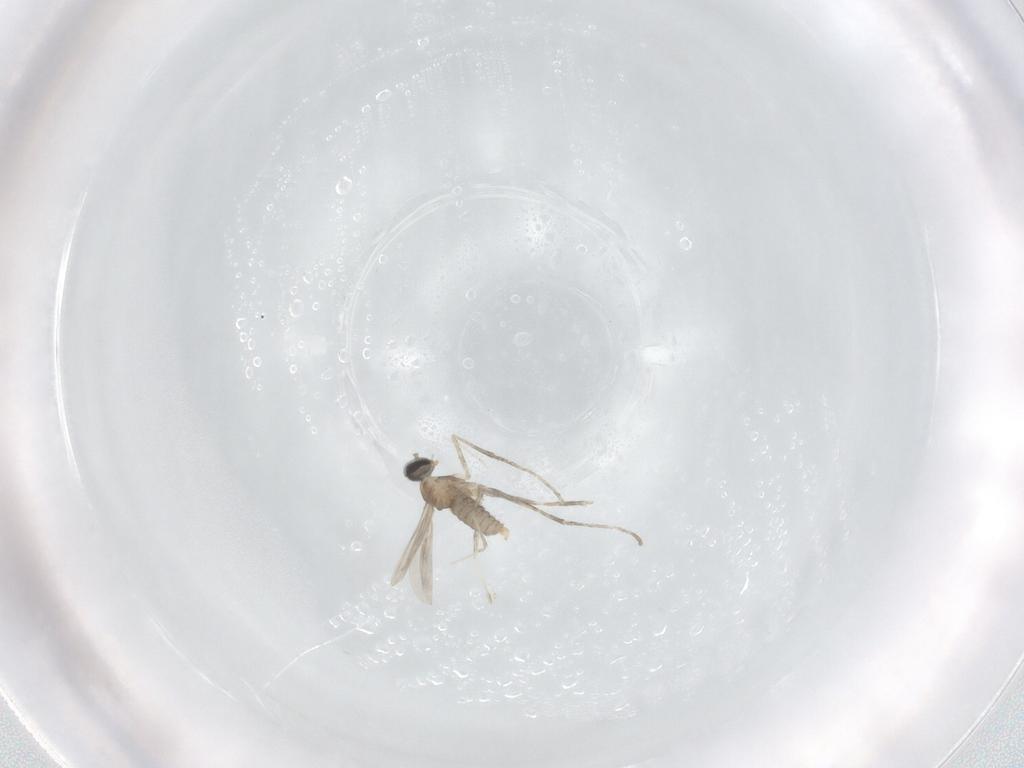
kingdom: Animalia
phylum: Arthropoda
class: Insecta
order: Diptera
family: Cecidomyiidae
